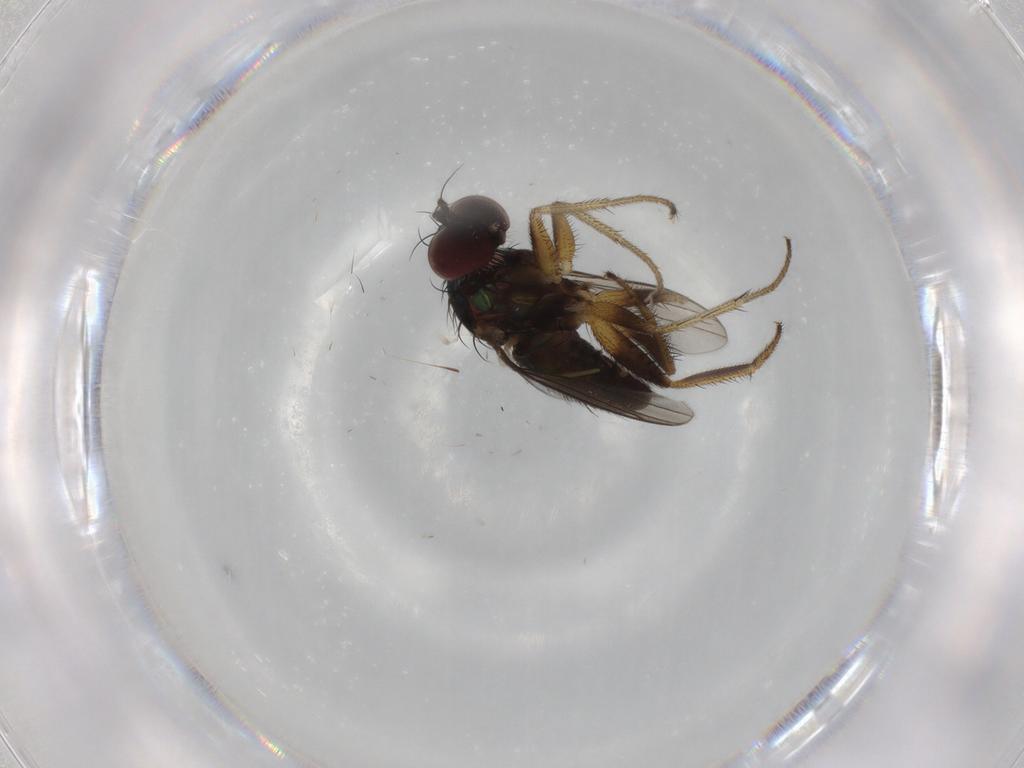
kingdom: Animalia
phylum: Arthropoda
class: Insecta
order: Diptera
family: Dolichopodidae
